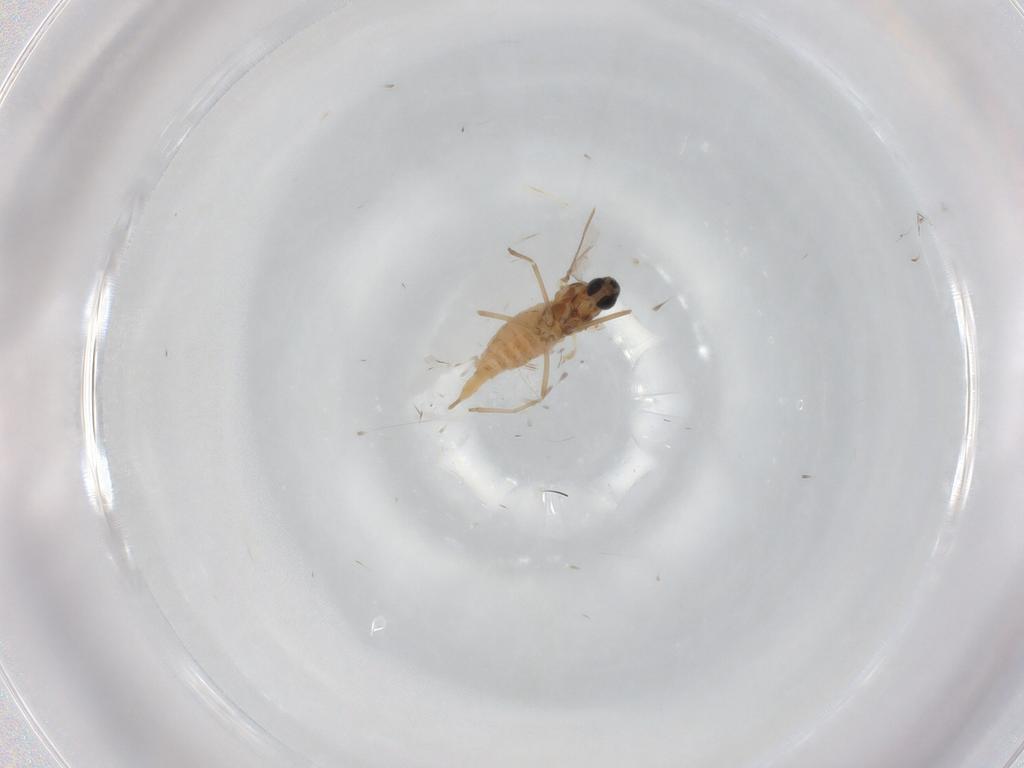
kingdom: Animalia
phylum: Arthropoda
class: Insecta
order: Diptera
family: Cecidomyiidae
